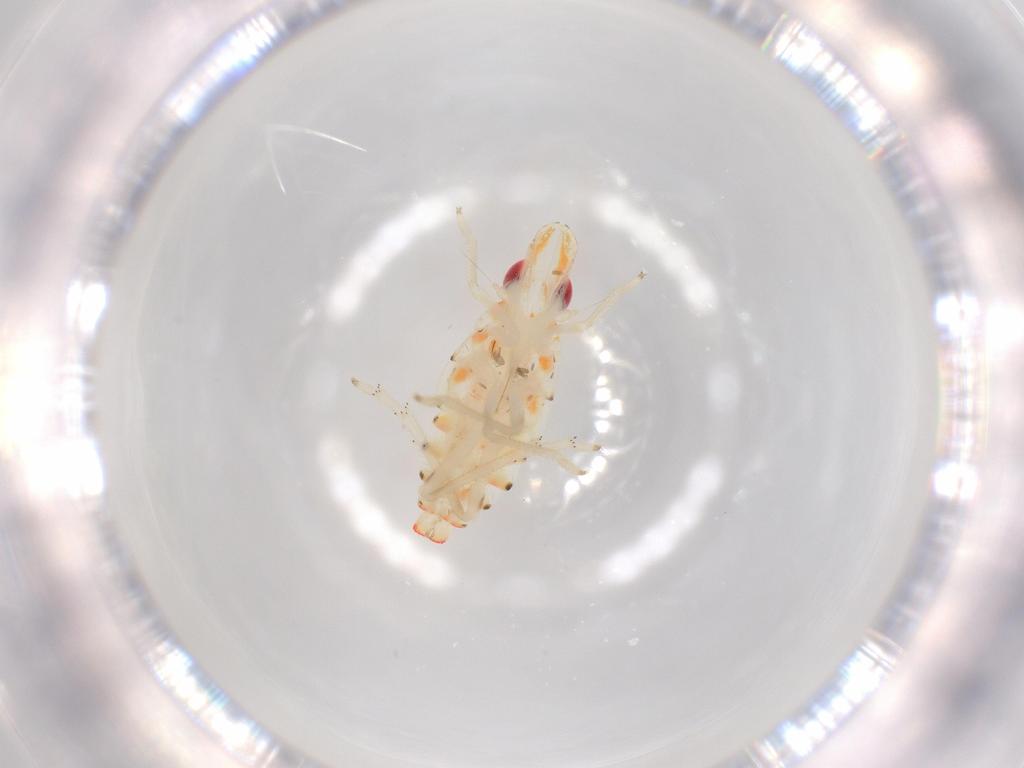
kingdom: Animalia
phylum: Arthropoda
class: Insecta
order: Hemiptera
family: Tropiduchidae
